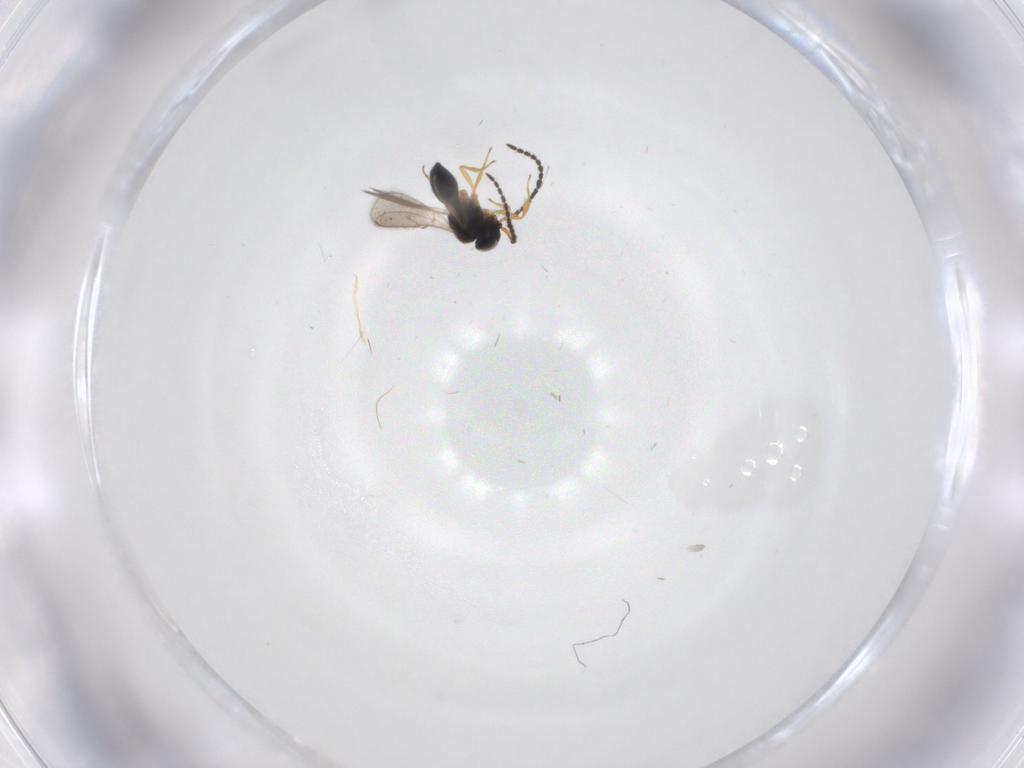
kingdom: Animalia
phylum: Arthropoda
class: Insecta
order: Hymenoptera
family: Scelionidae
